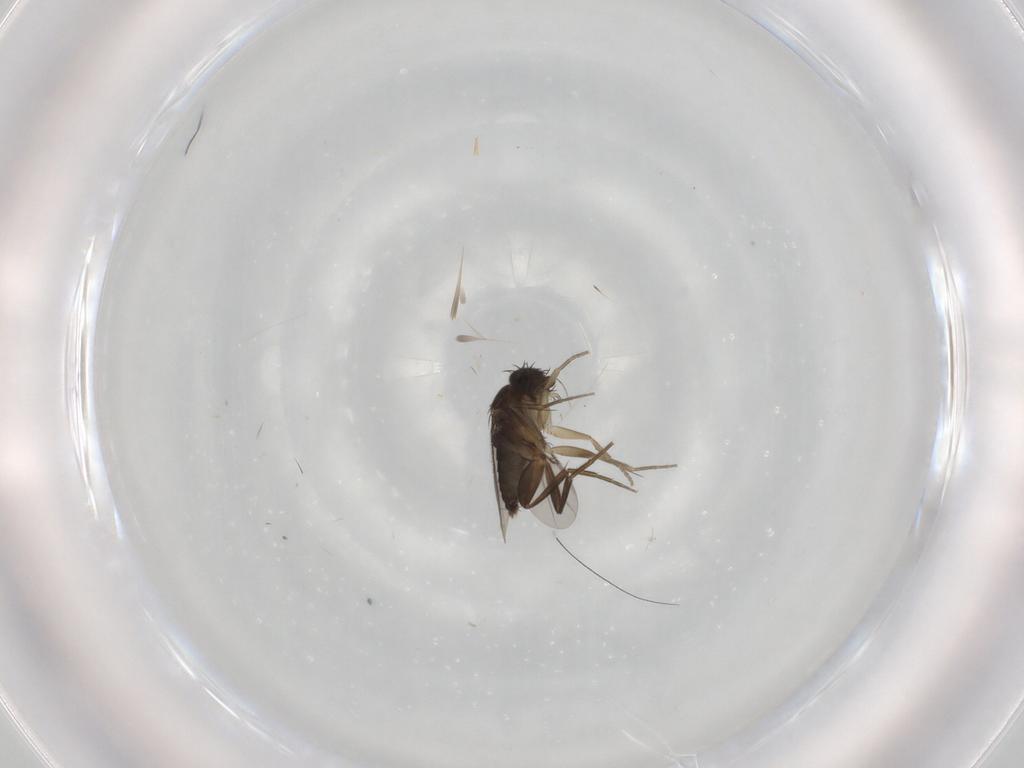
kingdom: Animalia
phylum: Arthropoda
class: Insecta
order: Diptera
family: Phoridae
